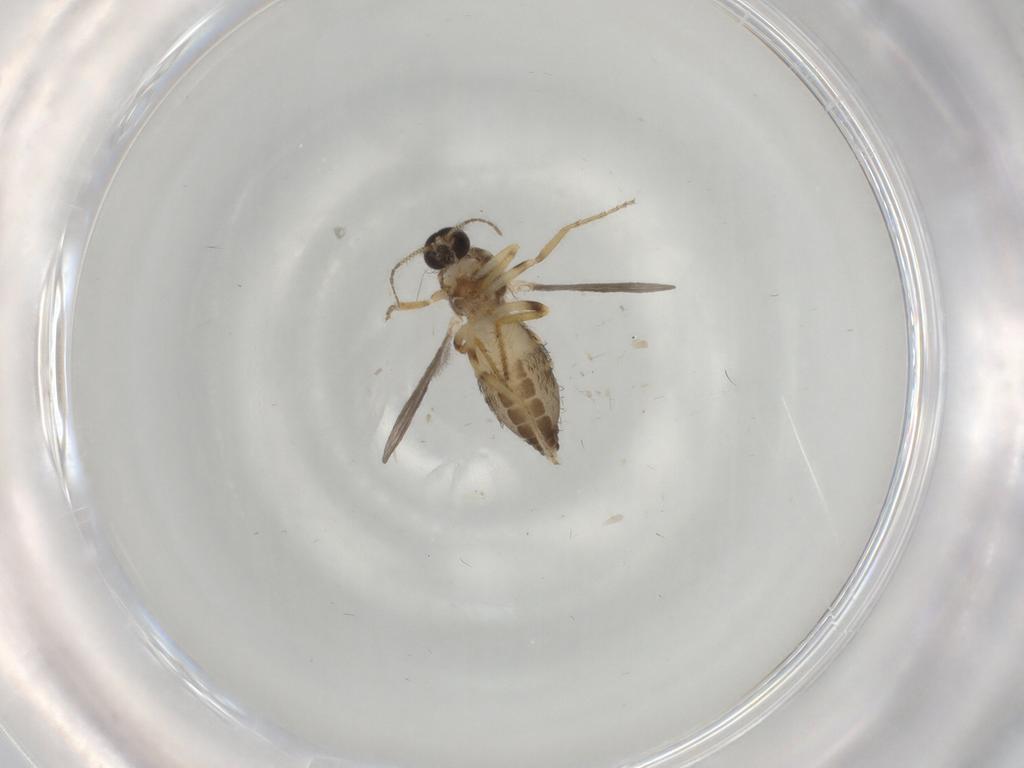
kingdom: Animalia
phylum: Arthropoda
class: Insecta
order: Diptera
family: Ceratopogonidae
